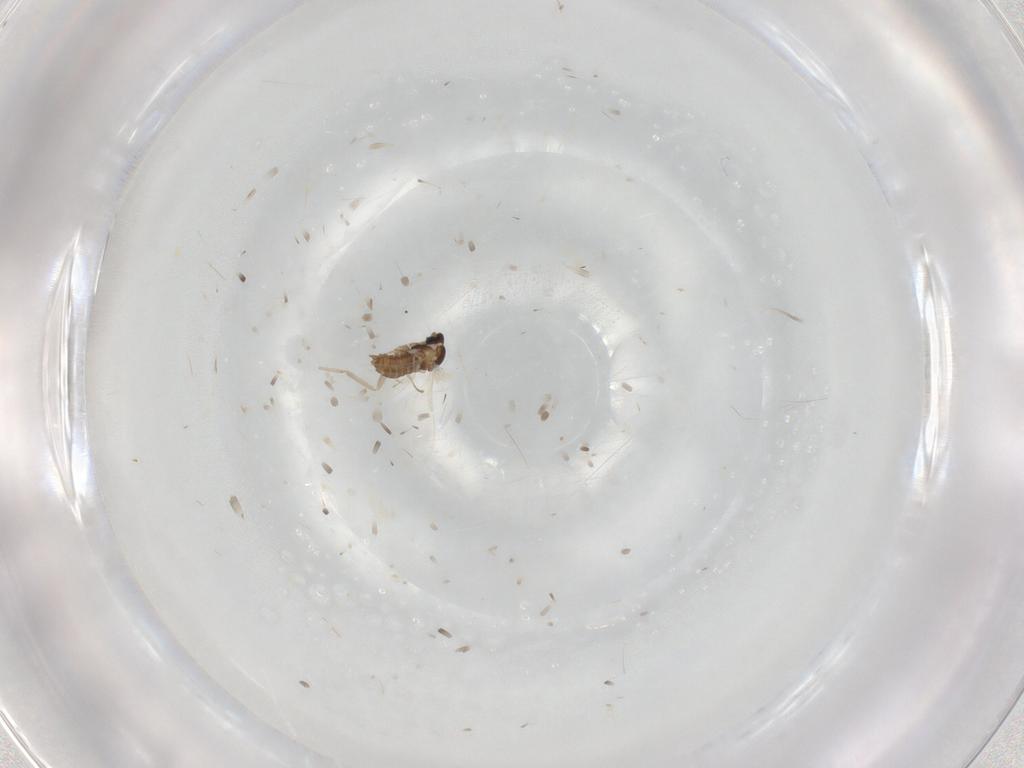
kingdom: Animalia
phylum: Arthropoda
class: Insecta
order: Diptera
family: Cecidomyiidae
